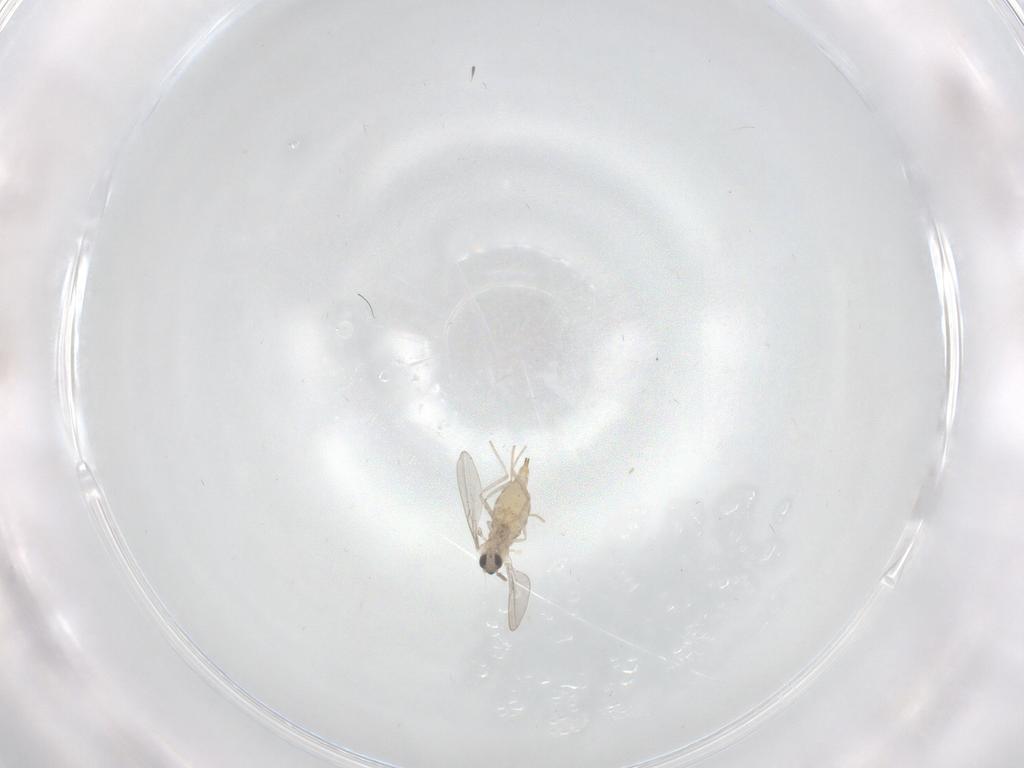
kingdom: Animalia
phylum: Arthropoda
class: Insecta
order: Diptera
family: Cecidomyiidae
